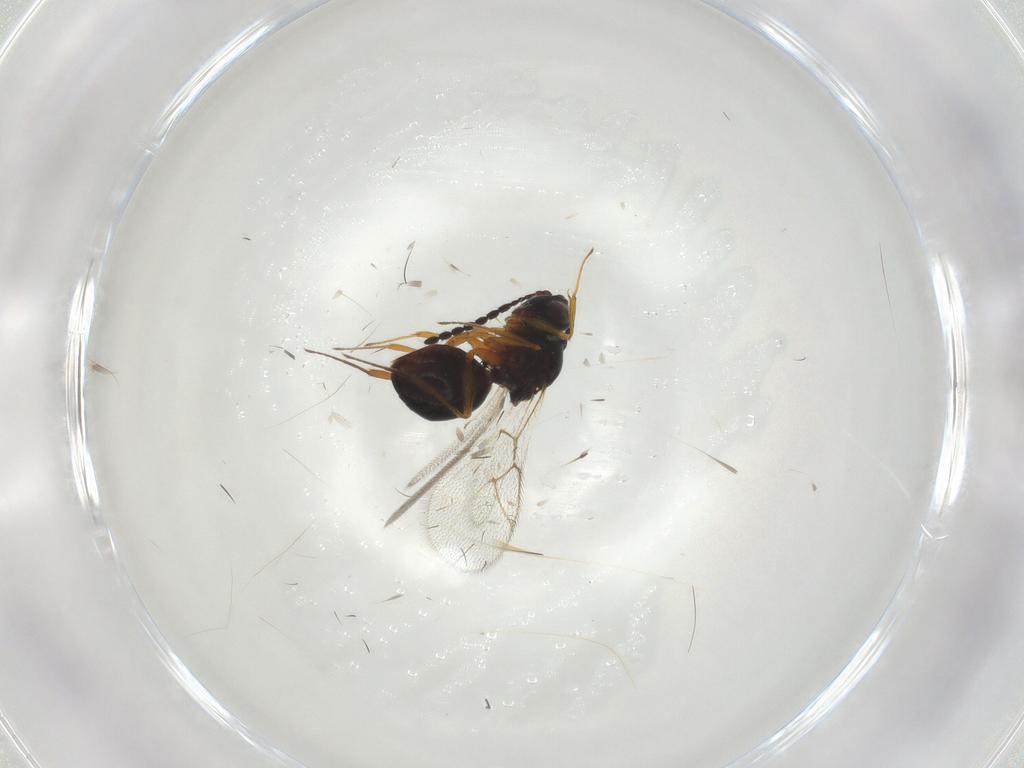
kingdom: Animalia
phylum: Arthropoda
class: Insecta
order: Hymenoptera
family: Figitidae
